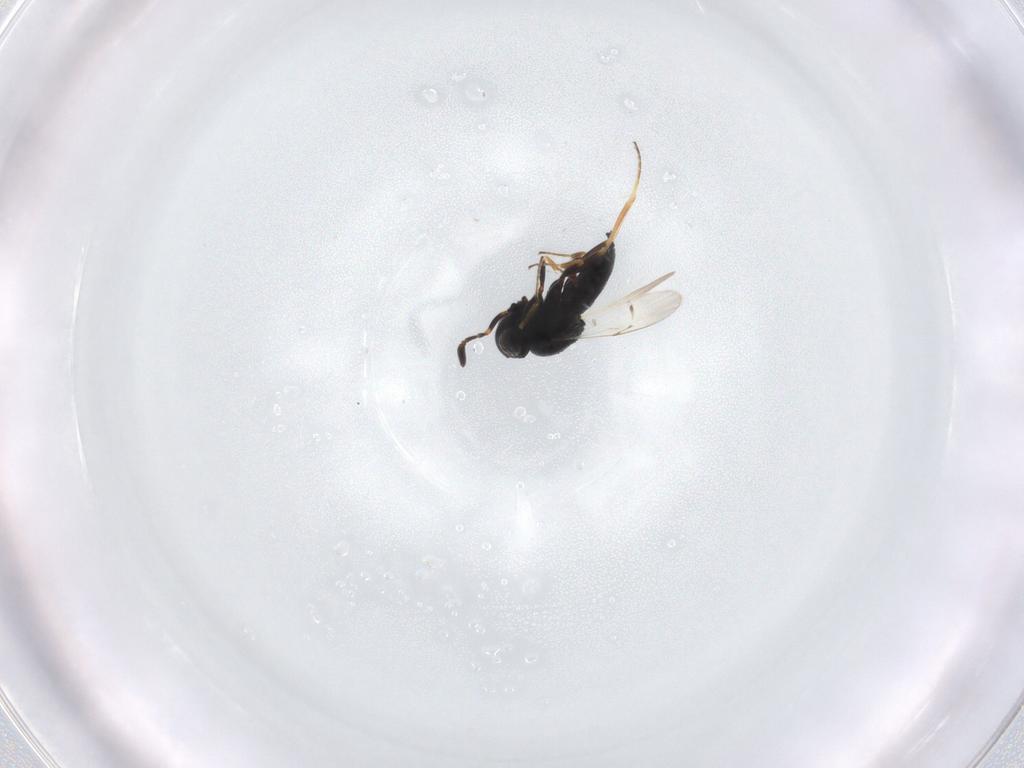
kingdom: Animalia
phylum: Arthropoda
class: Insecta
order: Hymenoptera
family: Scelionidae
